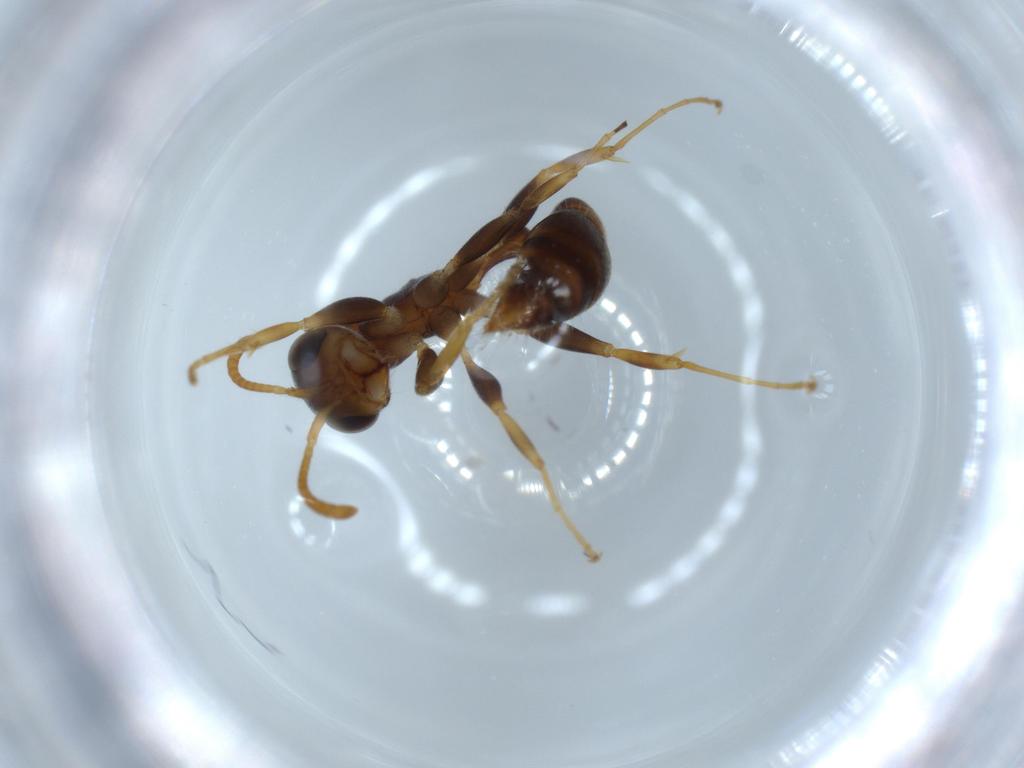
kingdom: Animalia
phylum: Arthropoda
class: Insecta
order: Hymenoptera
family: Formicidae
